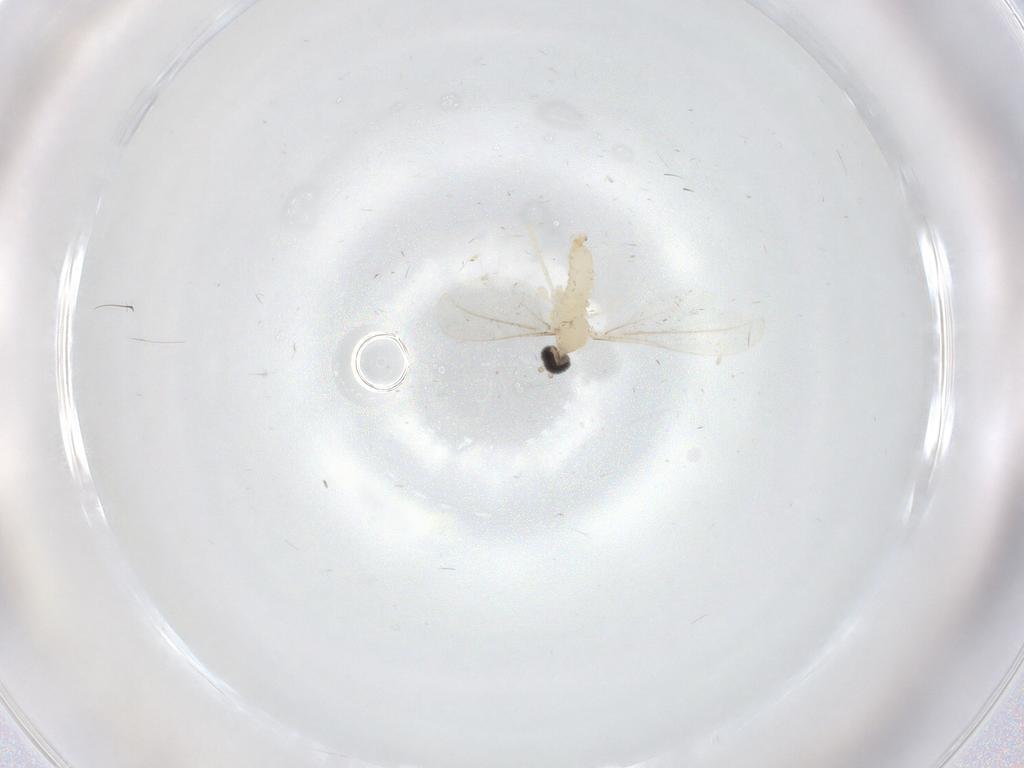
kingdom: Animalia
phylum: Arthropoda
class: Insecta
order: Diptera
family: Cecidomyiidae
